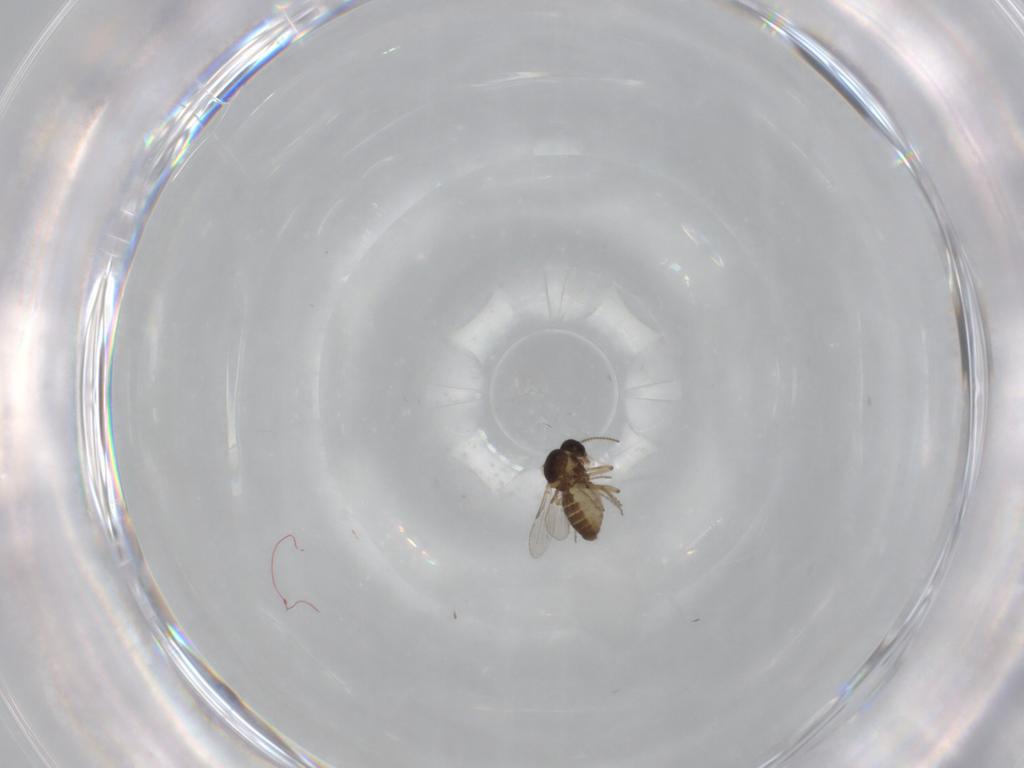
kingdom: Animalia
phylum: Arthropoda
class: Insecta
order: Diptera
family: Ceratopogonidae
